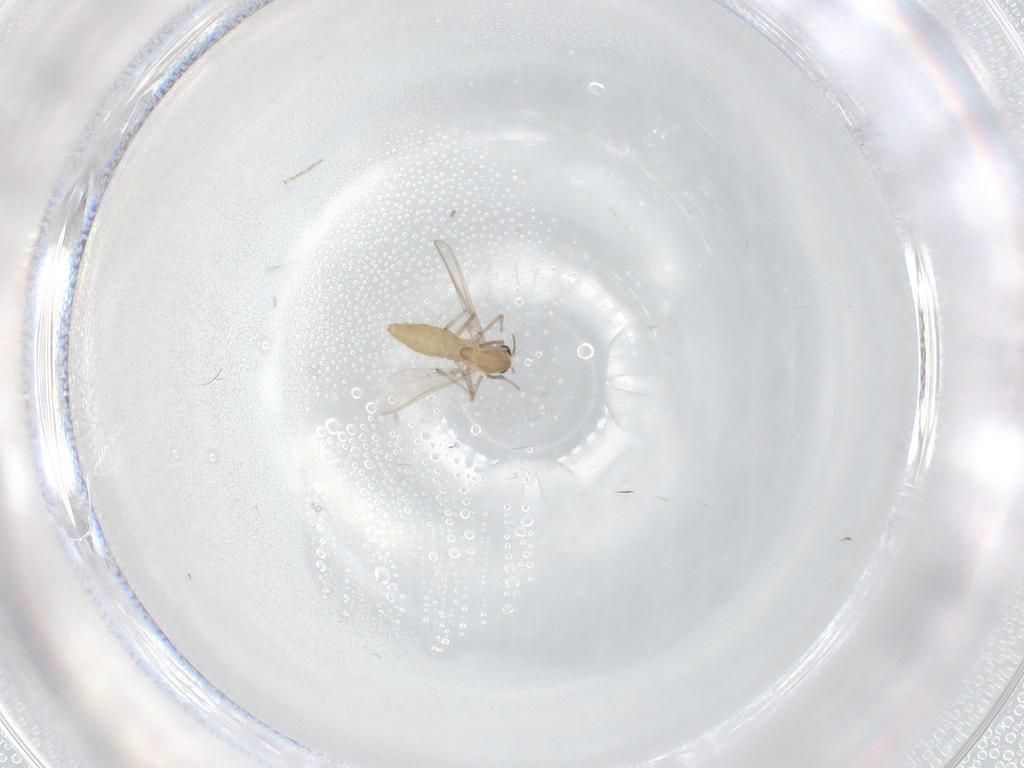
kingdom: Animalia
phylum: Arthropoda
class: Insecta
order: Diptera
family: Chironomidae
